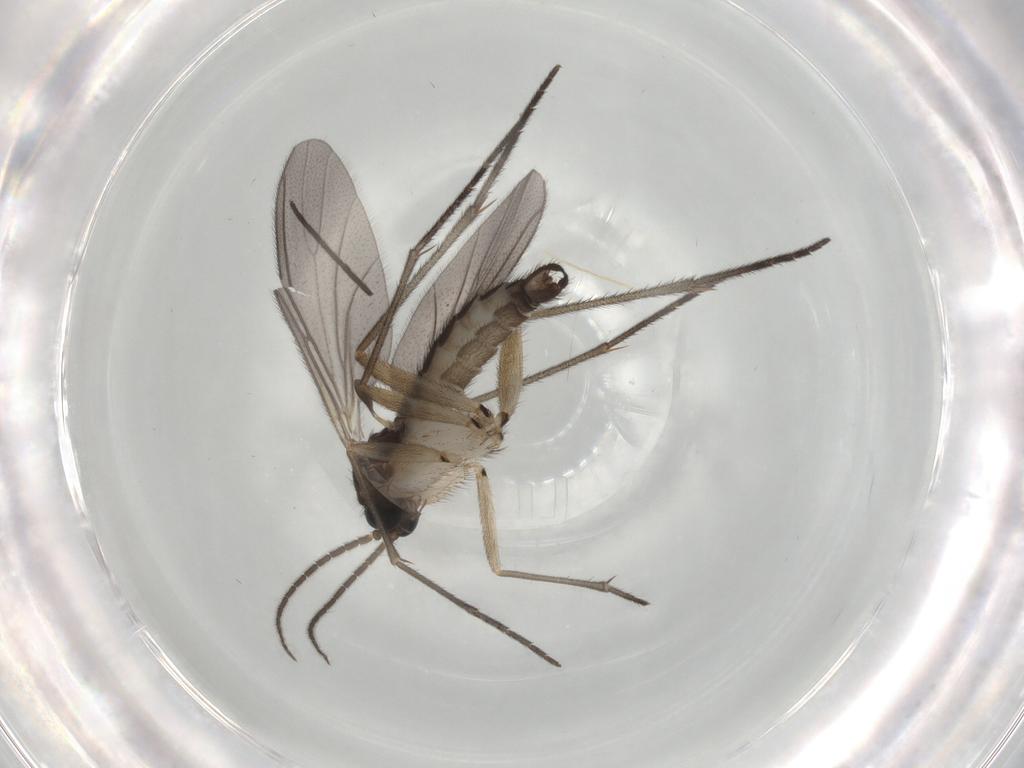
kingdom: Animalia
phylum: Arthropoda
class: Insecta
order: Diptera
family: Sciaridae
